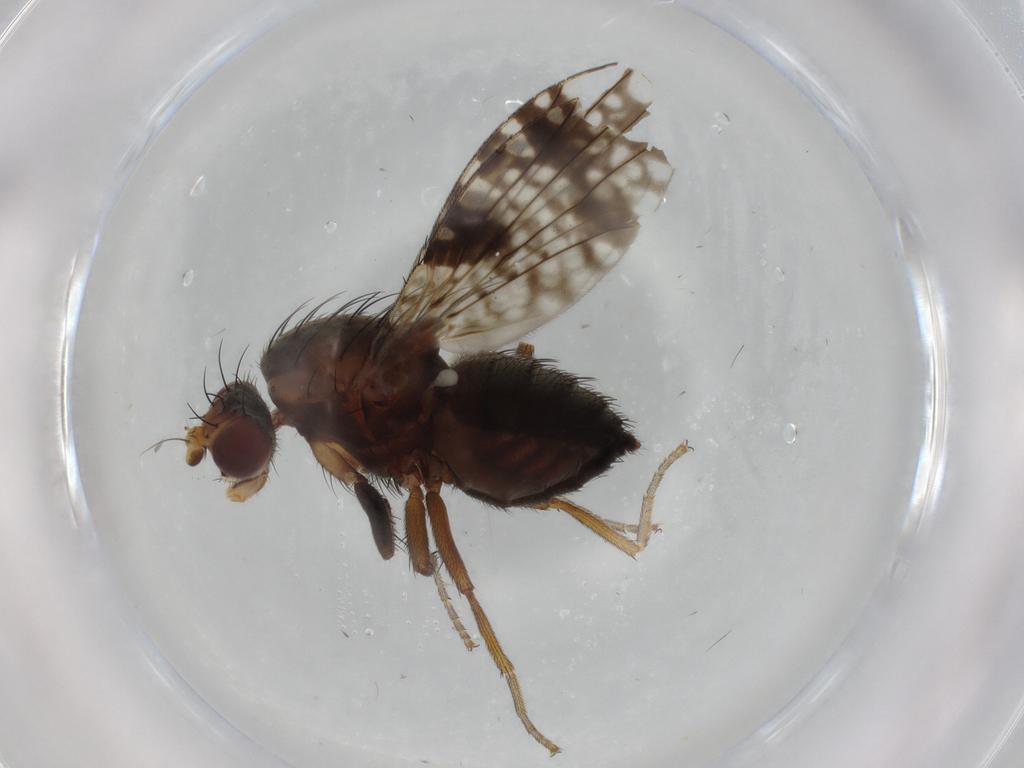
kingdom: Animalia
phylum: Arthropoda
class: Insecta
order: Diptera
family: Tephritidae
